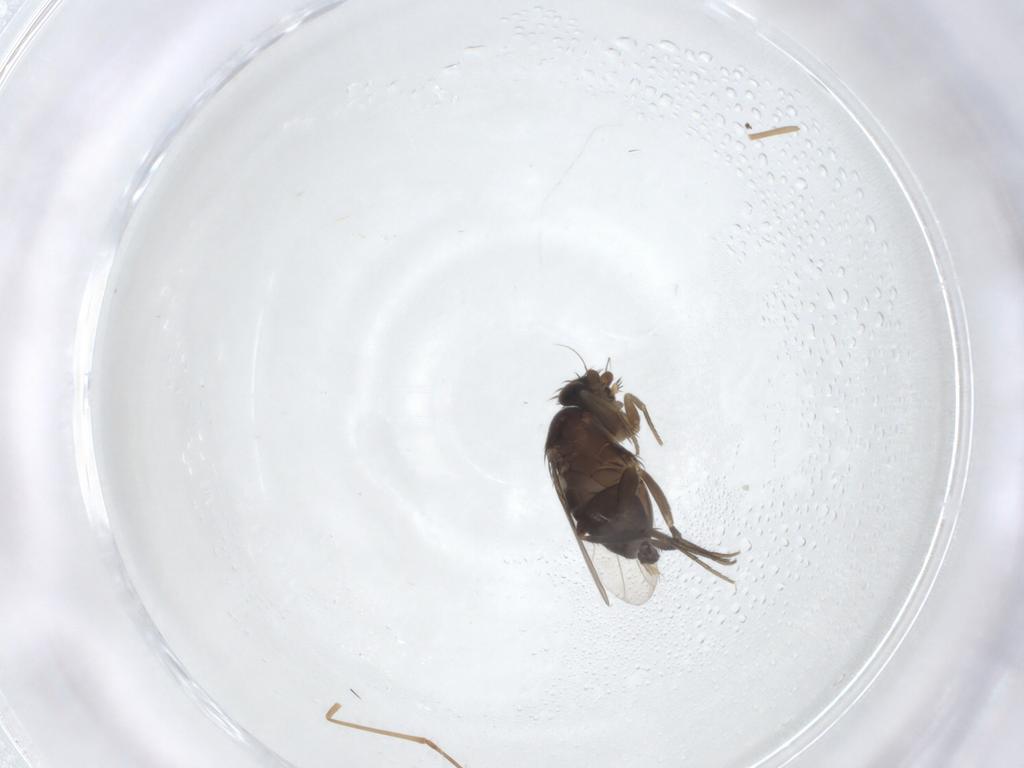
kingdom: Animalia
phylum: Arthropoda
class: Insecta
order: Diptera
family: Phoridae
